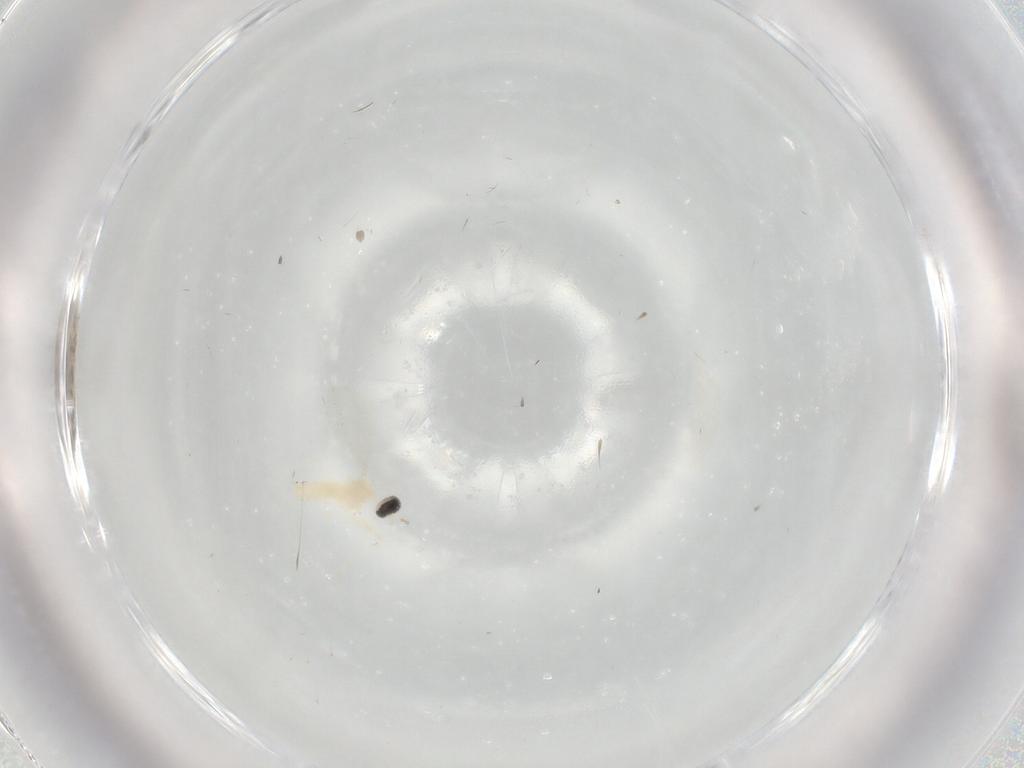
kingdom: Animalia
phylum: Arthropoda
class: Insecta
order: Diptera
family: Cecidomyiidae
